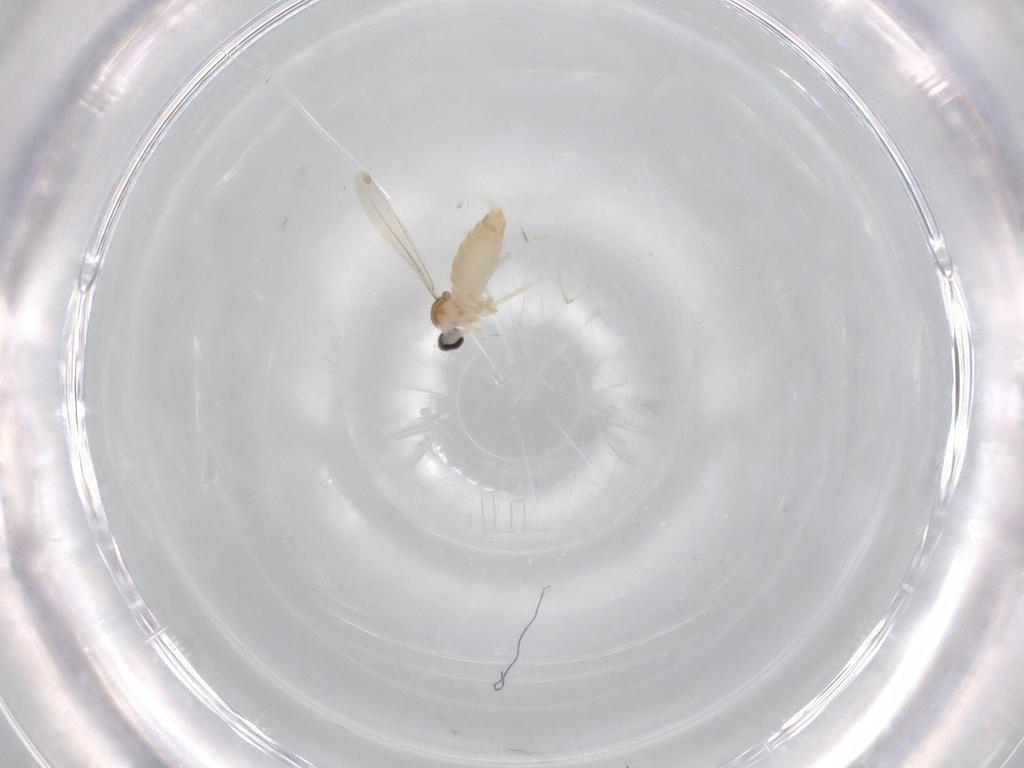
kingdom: Animalia
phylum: Arthropoda
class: Insecta
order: Diptera
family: Cecidomyiidae
